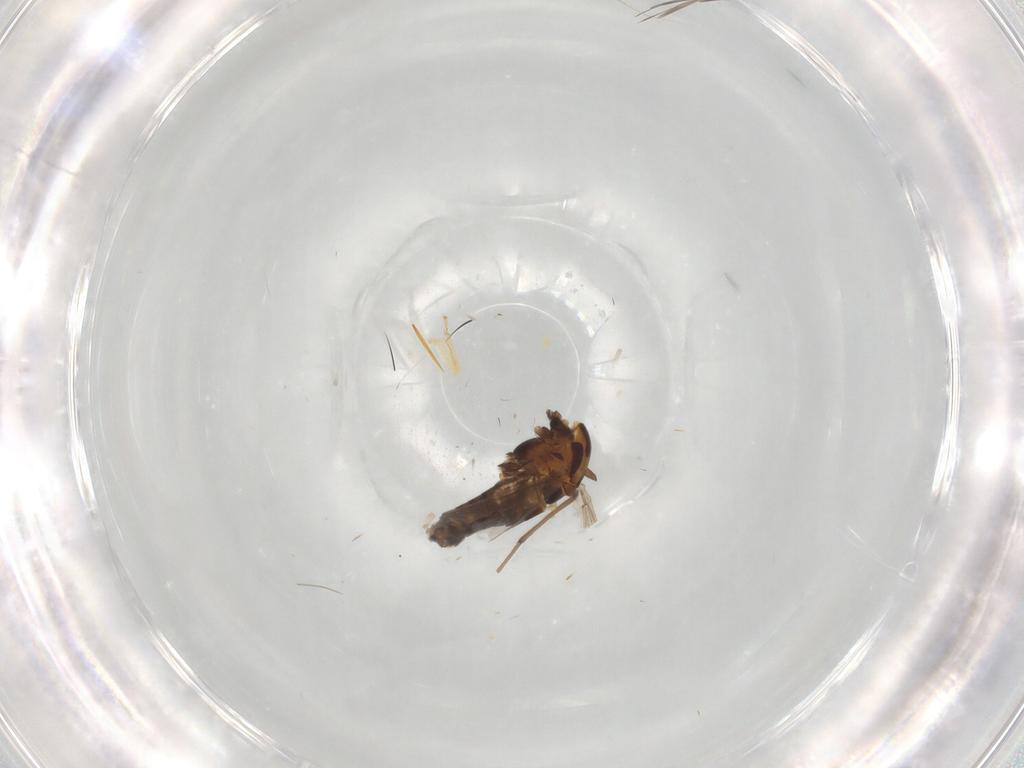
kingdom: Animalia
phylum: Arthropoda
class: Insecta
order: Diptera
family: Chironomidae
